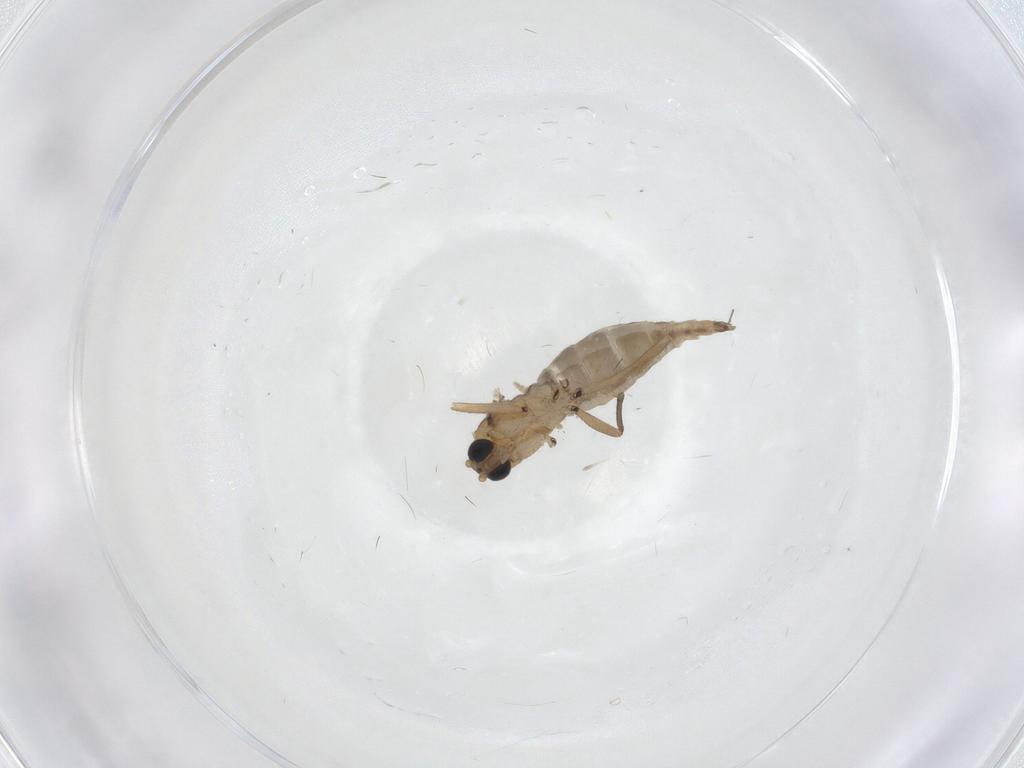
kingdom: Animalia
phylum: Arthropoda
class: Insecta
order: Diptera
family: Sciaridae
